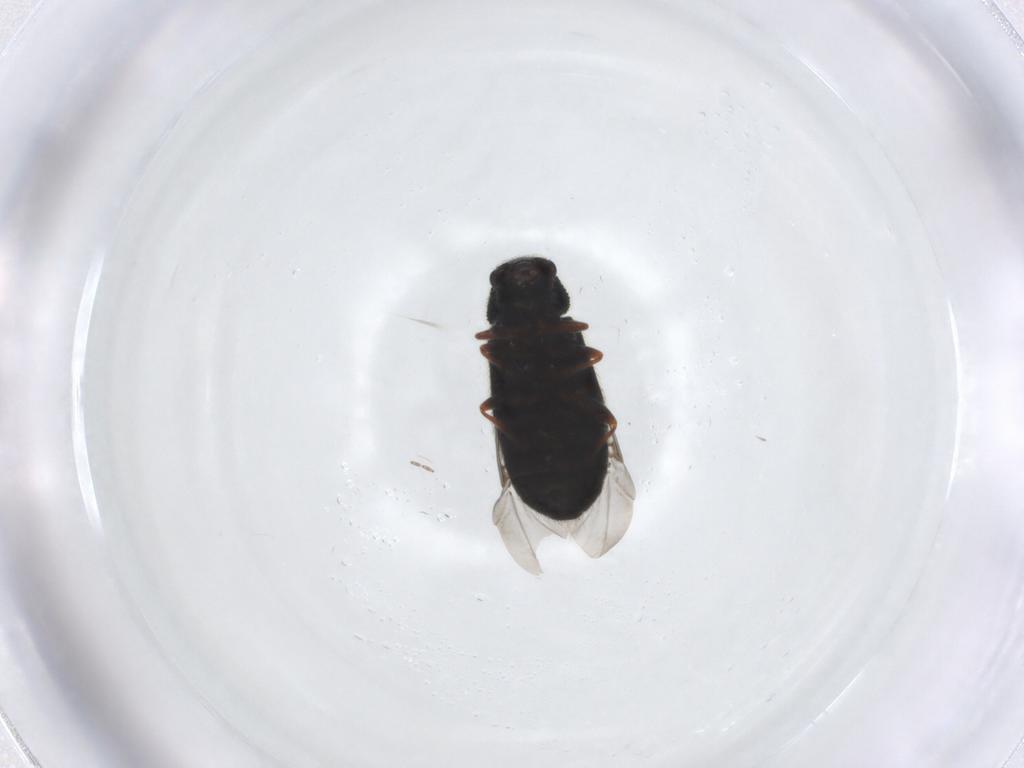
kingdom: Animalia
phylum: Arthropoda
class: Insecta
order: Coleoptera
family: Melyridae
